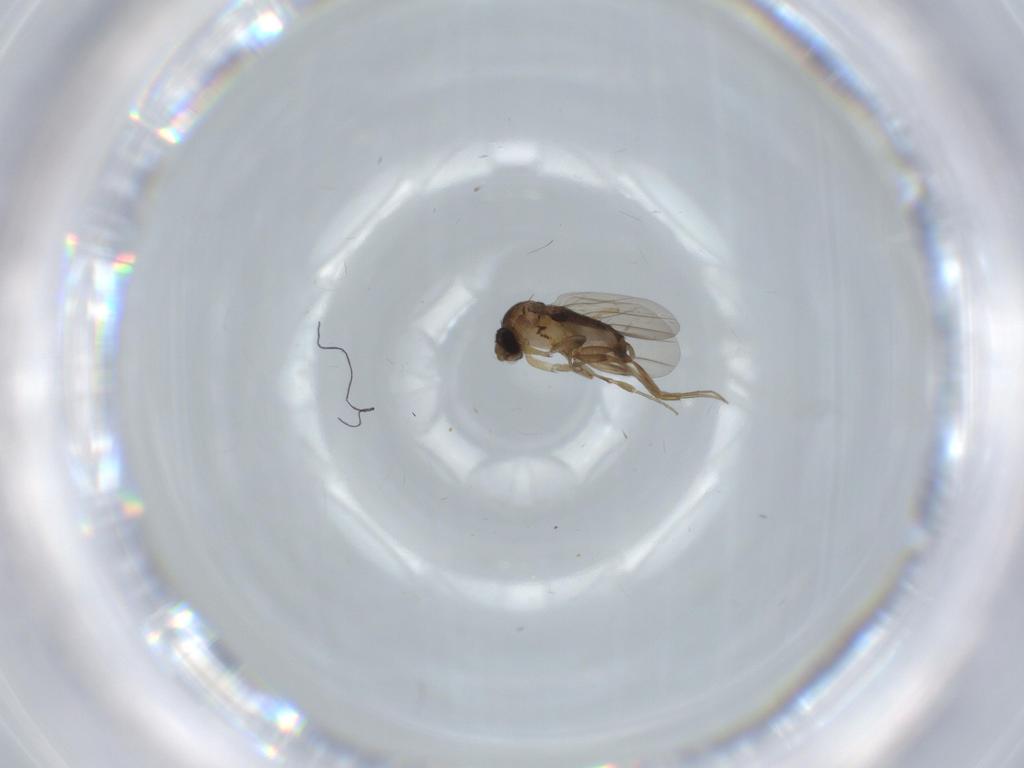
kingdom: Animalia
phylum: Arthropoda
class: Insecta
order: Diptera
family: Phoridae
